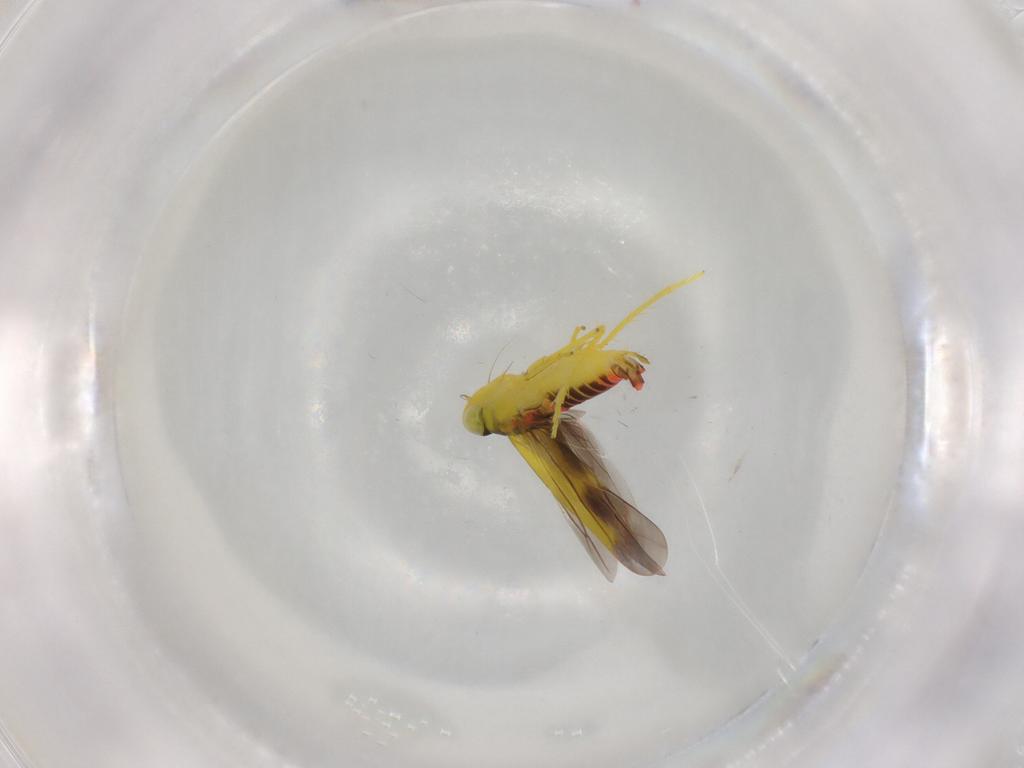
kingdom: Animalia
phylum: Arthropoda
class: Insecta
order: Hemiptera
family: Cicadellidae
